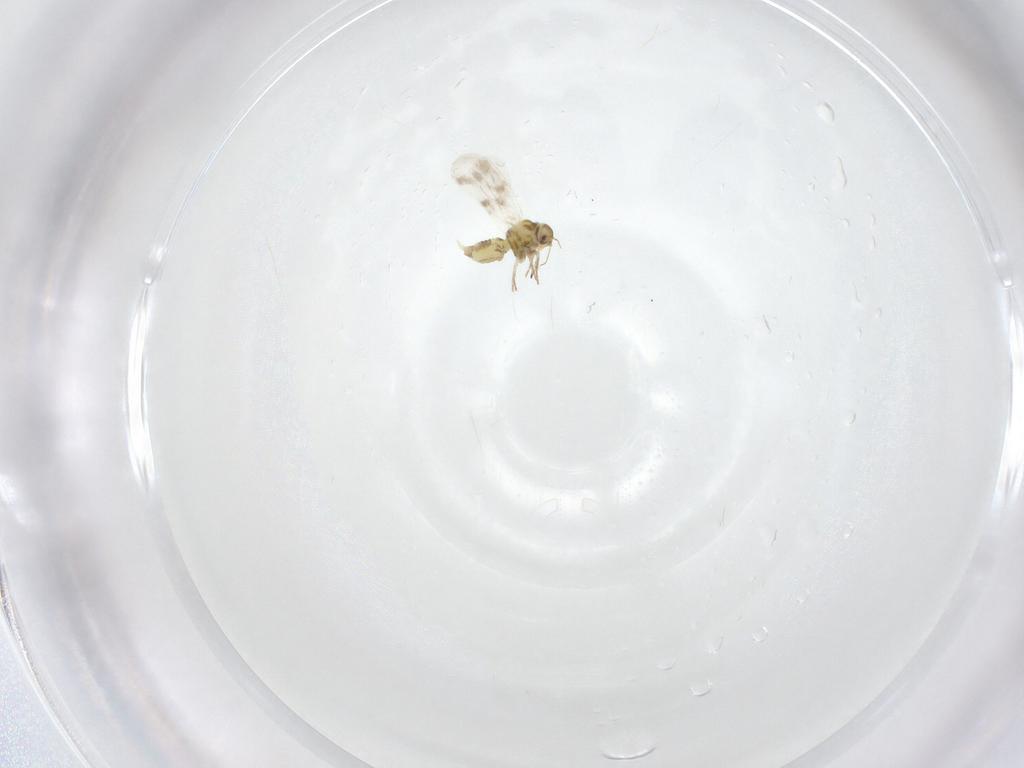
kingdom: Animalia
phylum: Arthropoda
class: Insecta
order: Hemiptera
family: Aleyrodidae
